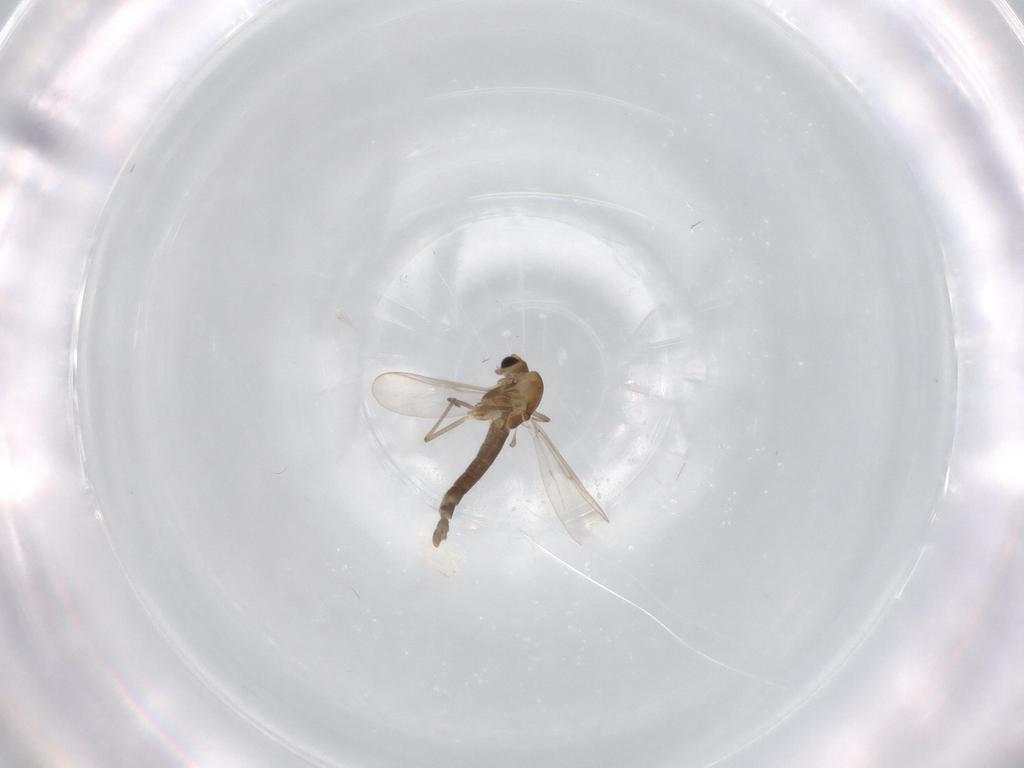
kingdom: Animalia
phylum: Arthropoda
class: Insecta
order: Diptera
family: Chironomidae
